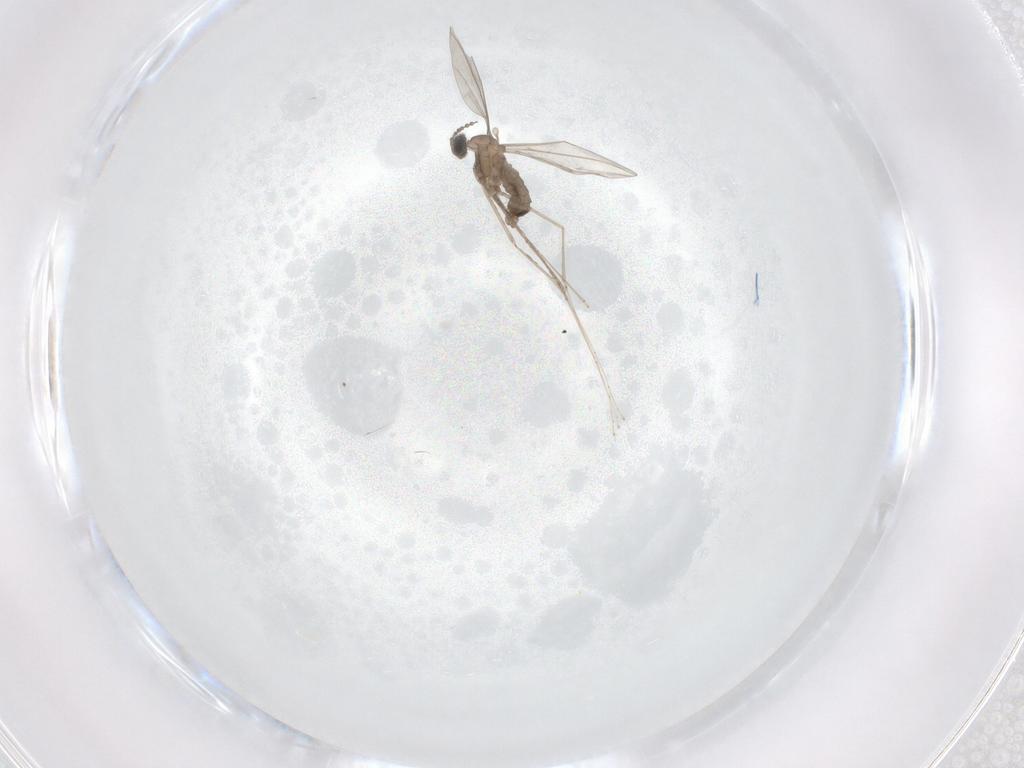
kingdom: Animalia
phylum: Arthropoda
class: Insecta
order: Diptera
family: Cecidomyiidae
